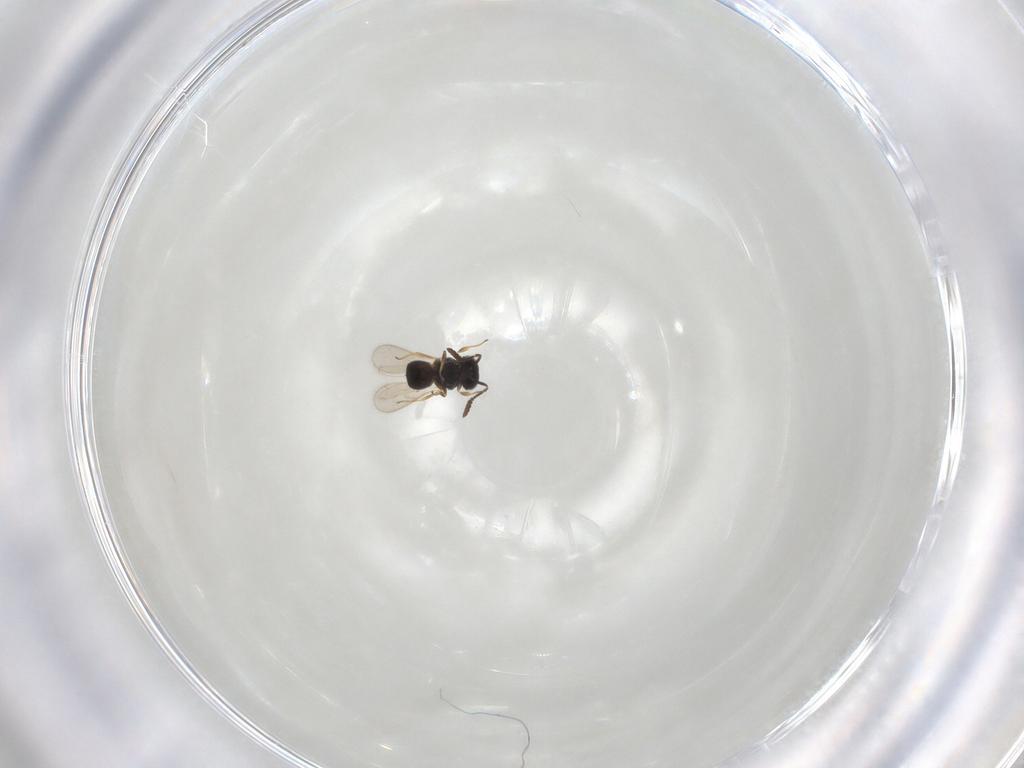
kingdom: Animalia
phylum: Arthropoda
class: Insecta
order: Hymenoptera
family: Scelionidae
